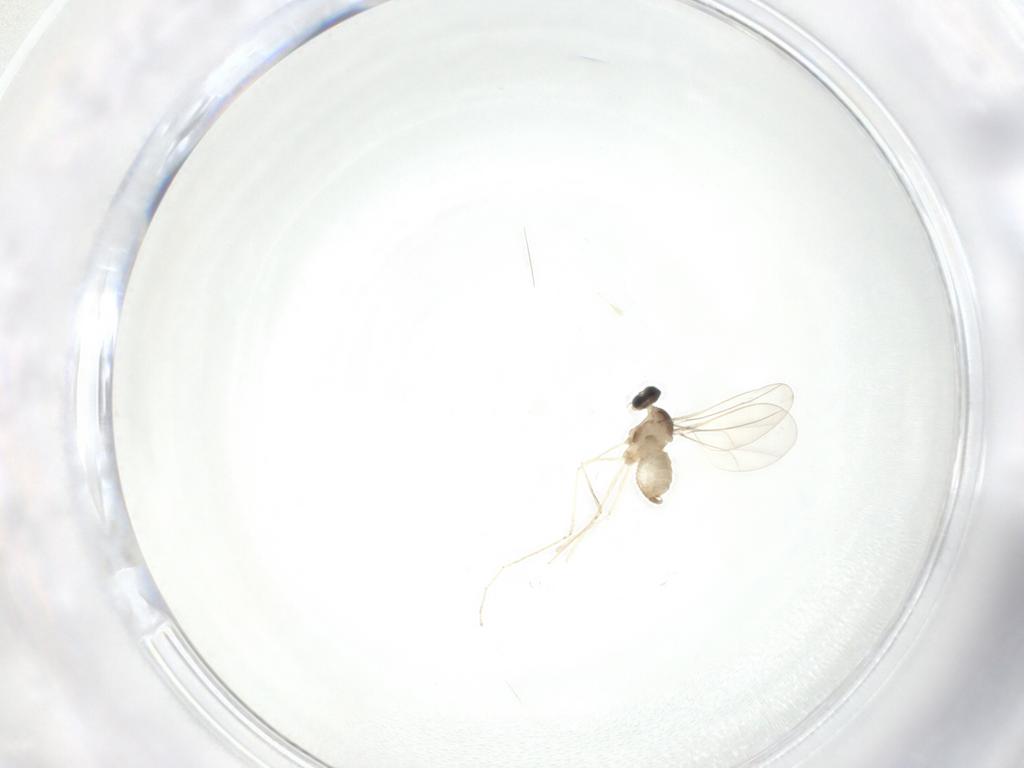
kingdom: Animalia
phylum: Arthropoda
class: Insecta
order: Diptera
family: Cecidomyiidae
